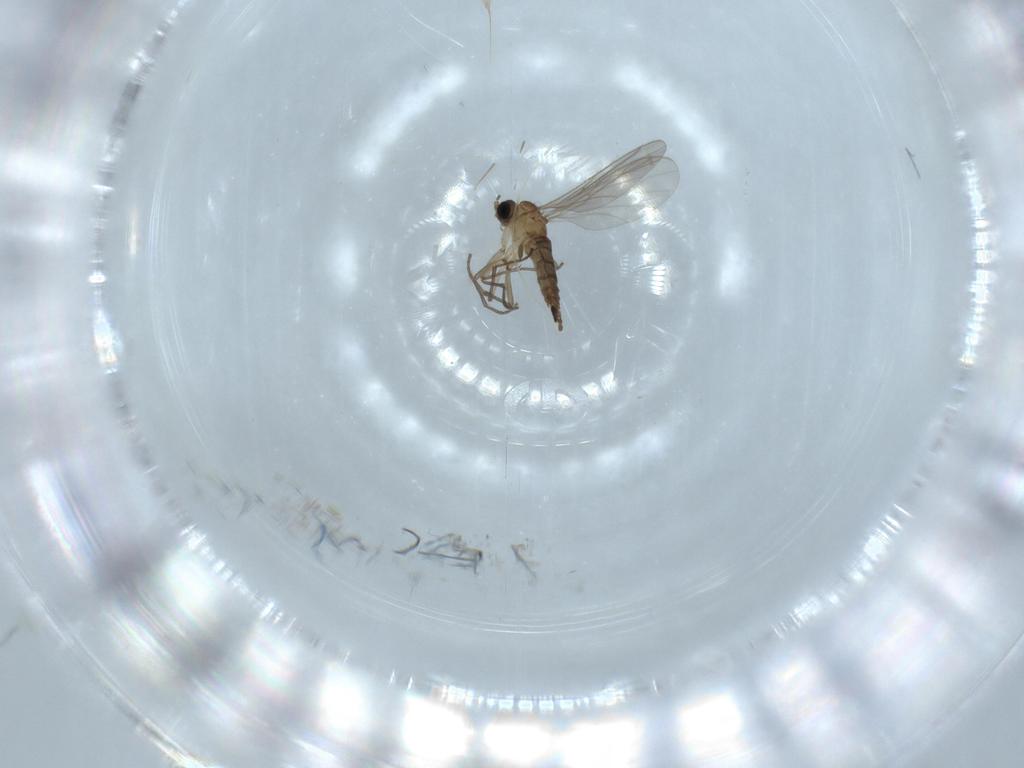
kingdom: Animalia
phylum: Arthropoda
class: Insecta
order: Diptera
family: Sciaridae
